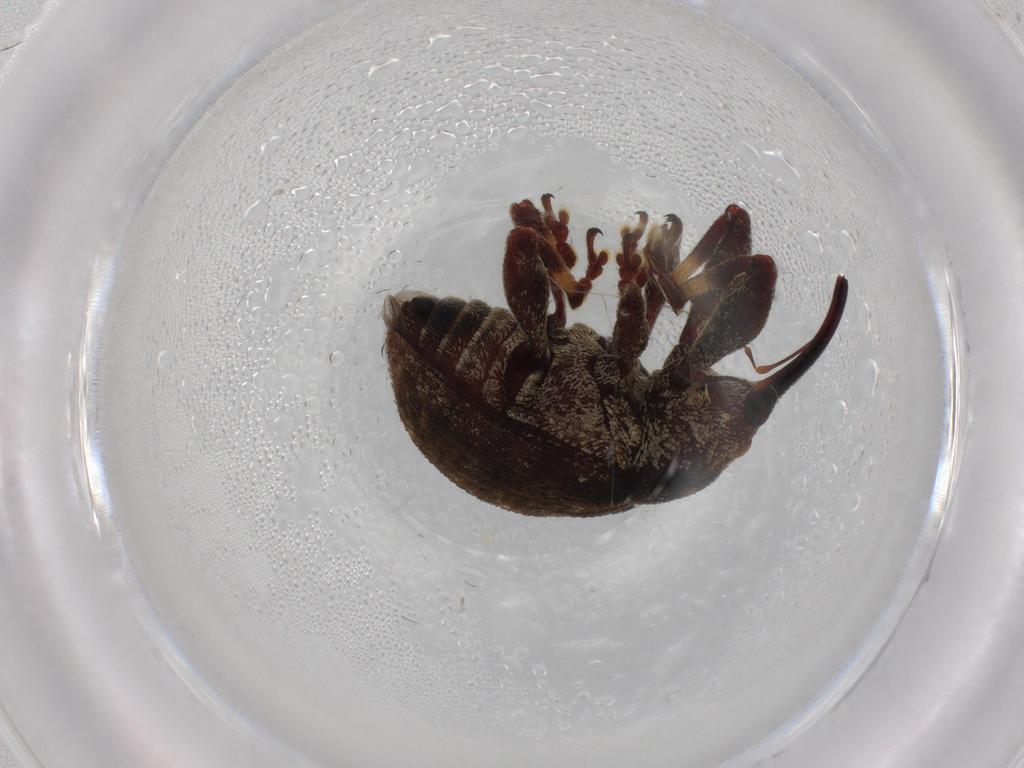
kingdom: Animalia
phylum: Arthropoda
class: Insecta
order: Coleoptera
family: Curculionidae
